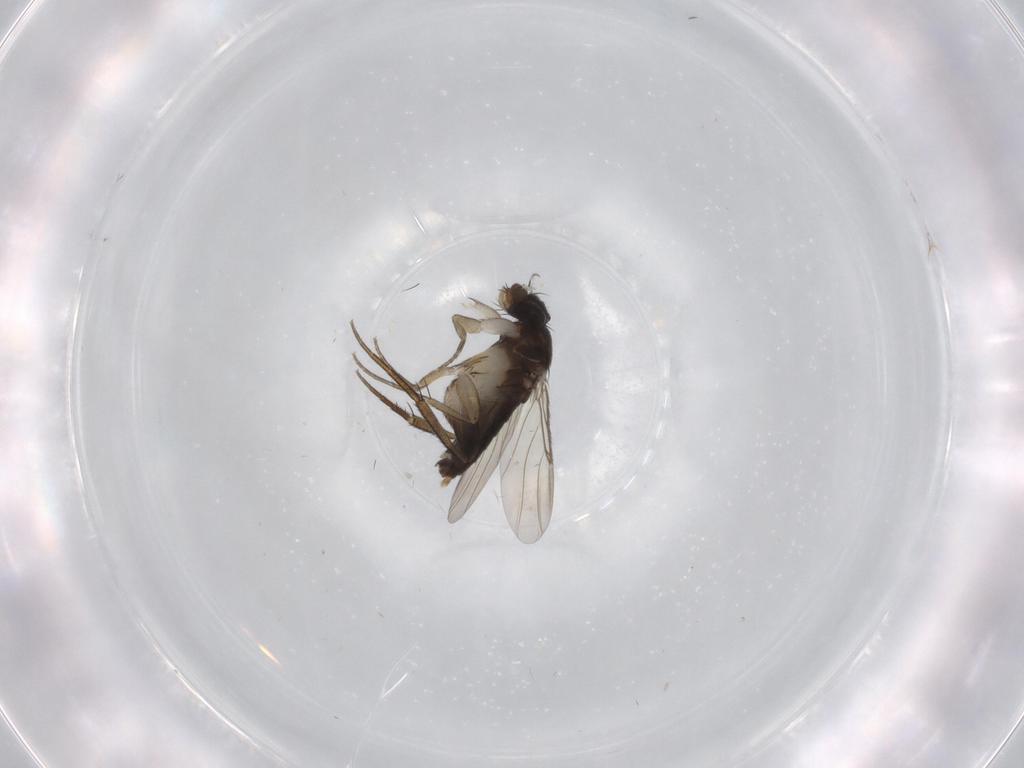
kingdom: Animalia
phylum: Arthropoda
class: Insecta
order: Diptera
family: Phoridae
